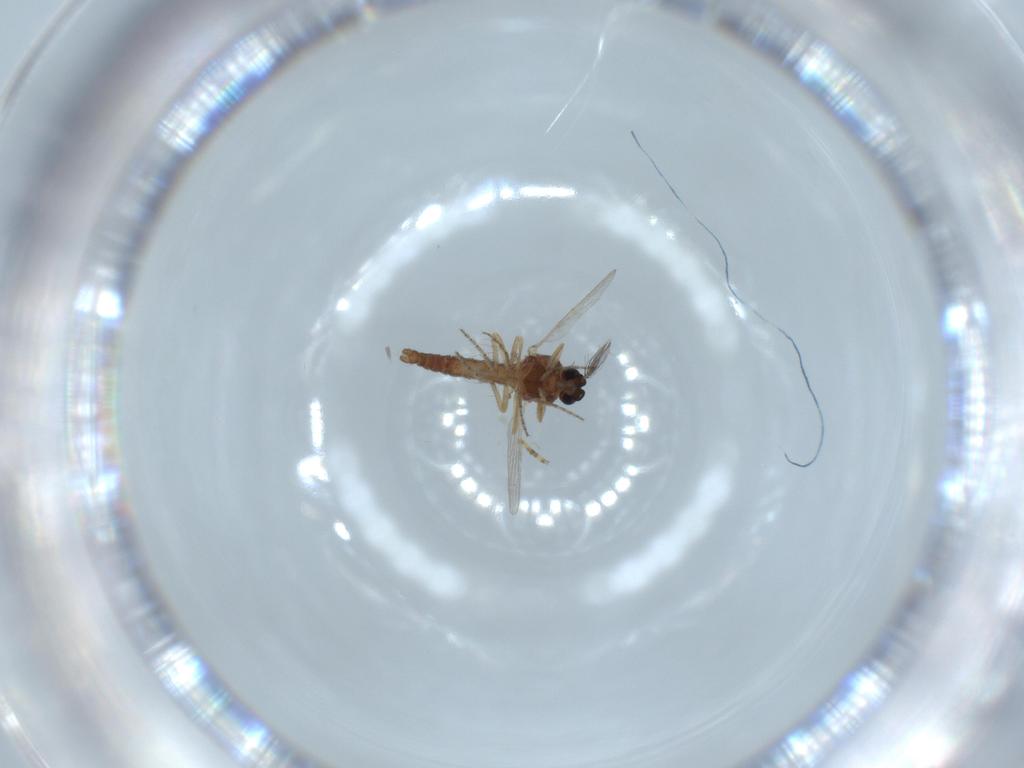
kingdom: Animalia
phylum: Arthropoda
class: Insecta
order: Diptera
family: Ceratopogonidae
